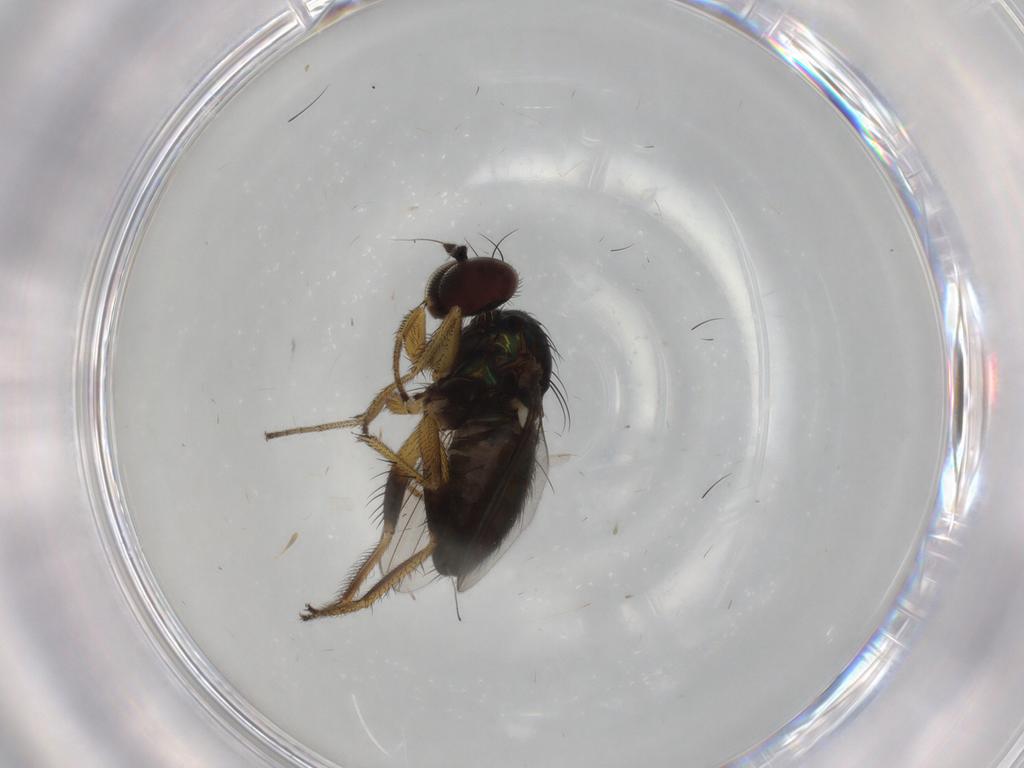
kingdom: Animalia
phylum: Arthropoda
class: Insecta
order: Diptera
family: Dolichopodidae
